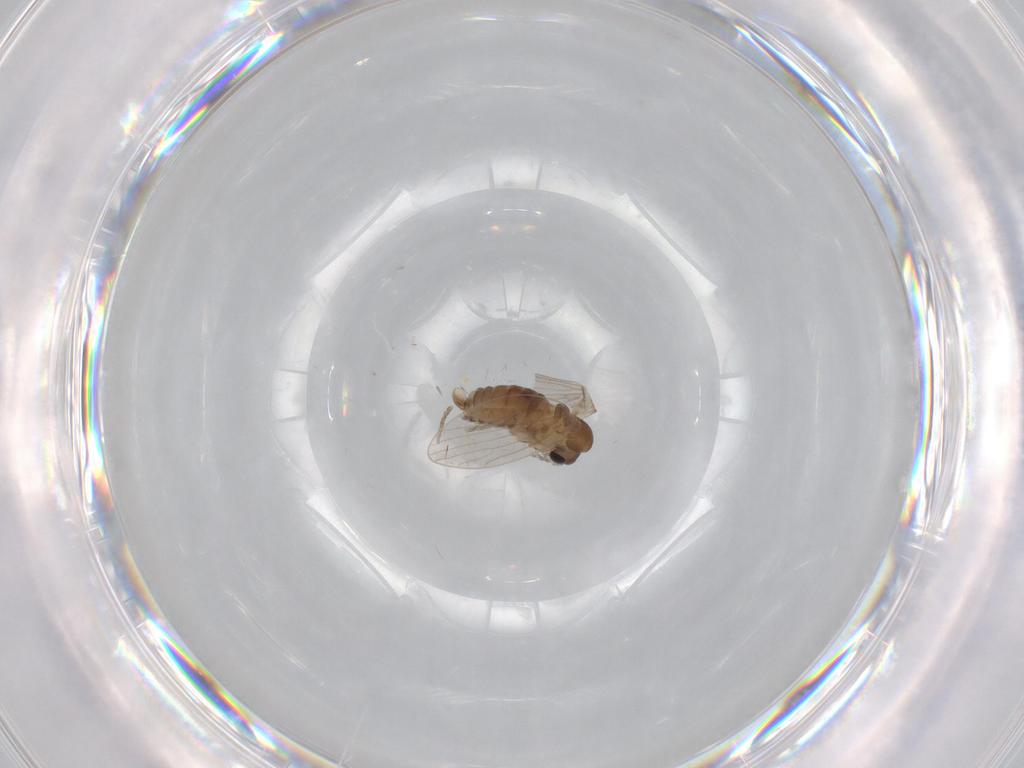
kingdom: Animalia
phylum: Arthropoda
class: Insecta
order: Diptera
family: Psychodidae
